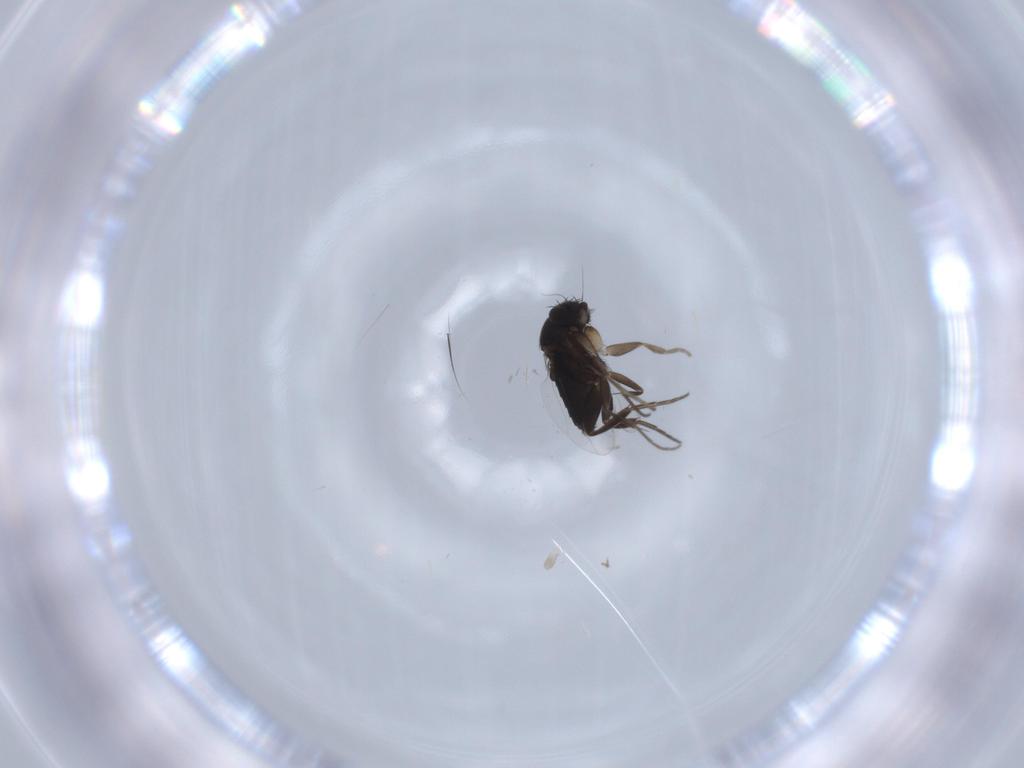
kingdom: Animalia
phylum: Arthropoda
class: Insecta
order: Diptera
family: Phoridae
